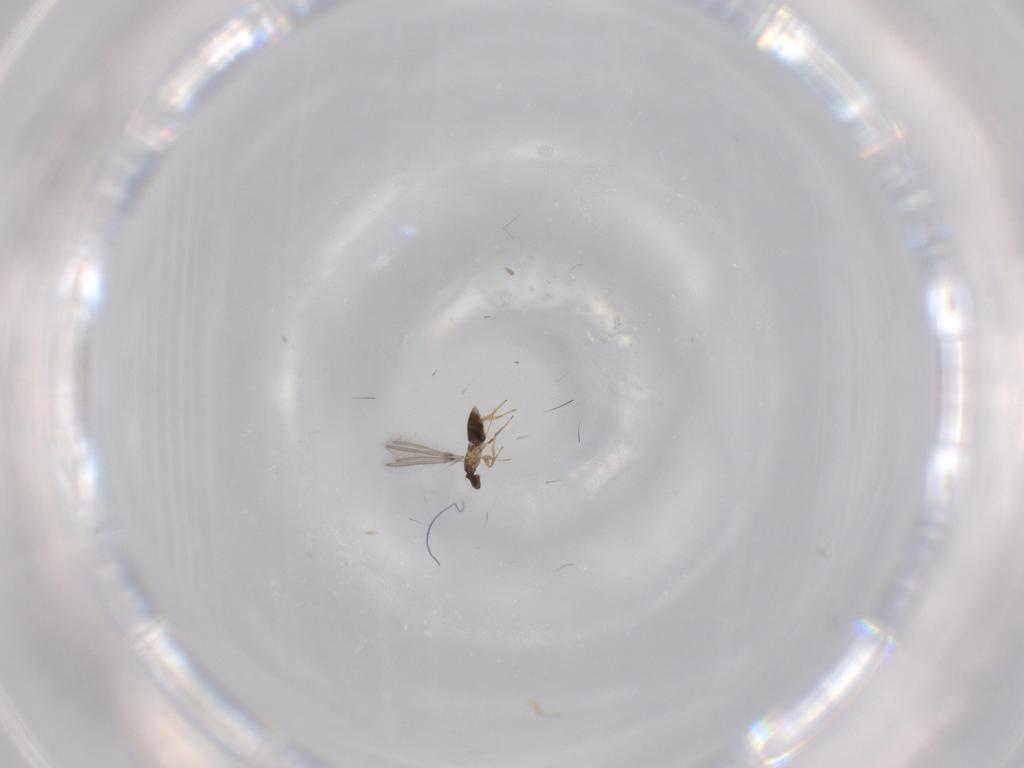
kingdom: Animalia
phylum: Arthropoda
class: Insecta
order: Hymenoptera
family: Mymaridae
